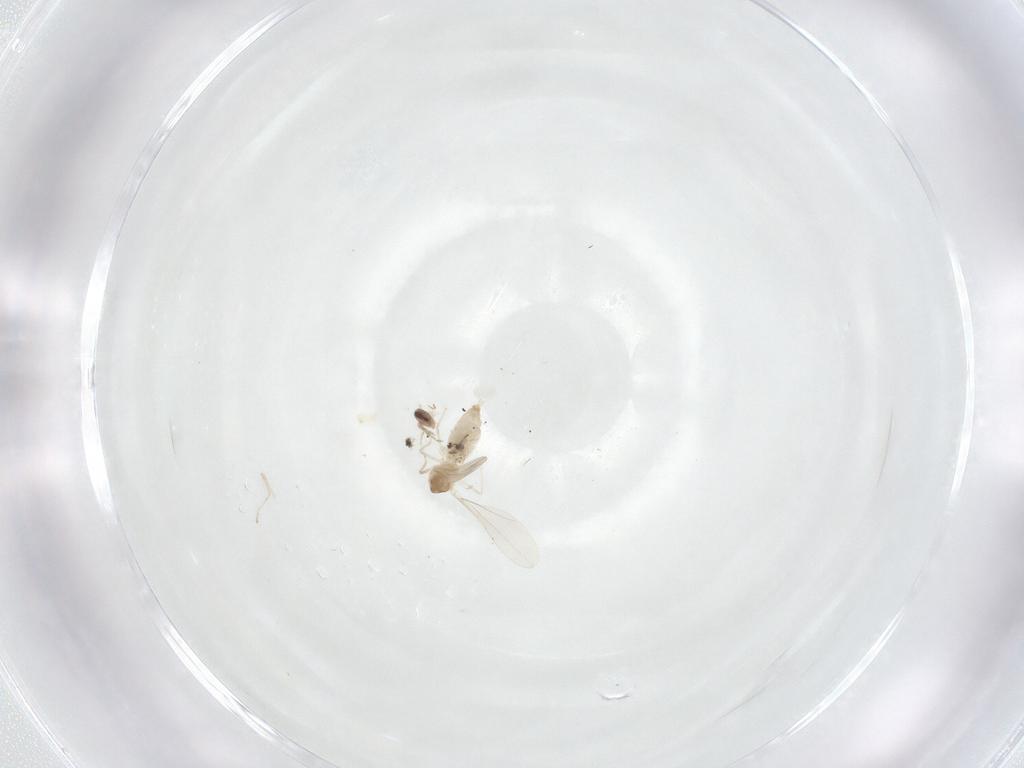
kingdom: Animalia
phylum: Arthropoda
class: Insecta
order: Diptera
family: Cecidomyiidae
